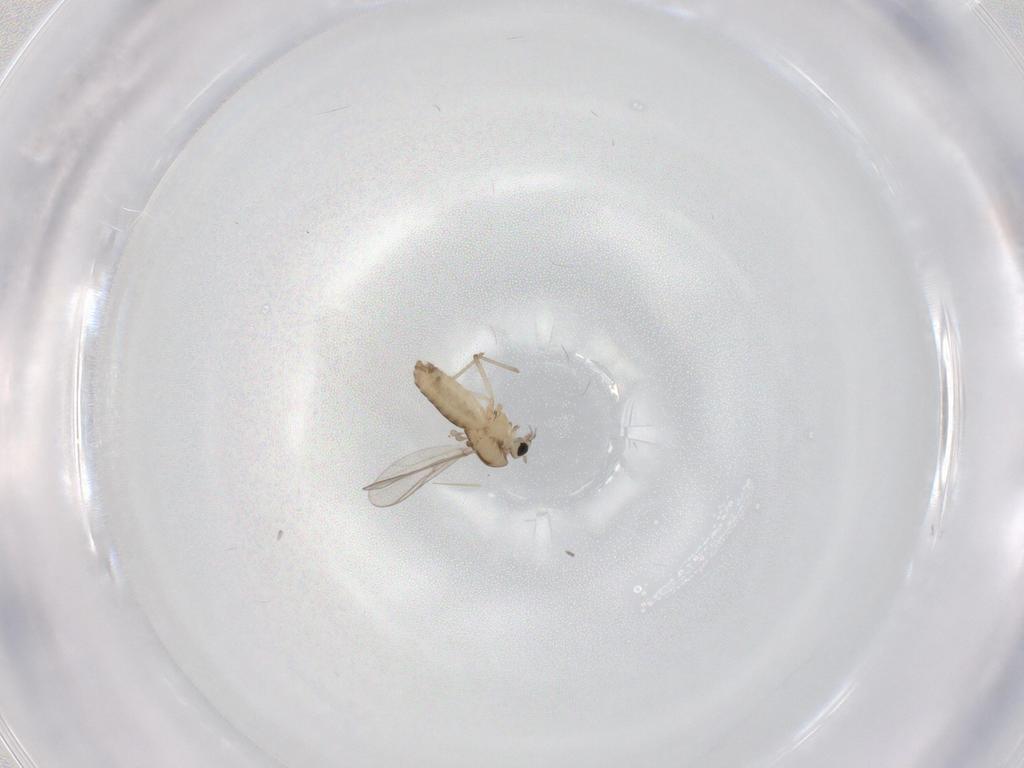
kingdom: Animalia
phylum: Arthropoda
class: Insecta
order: Diptera
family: Chironomidae
